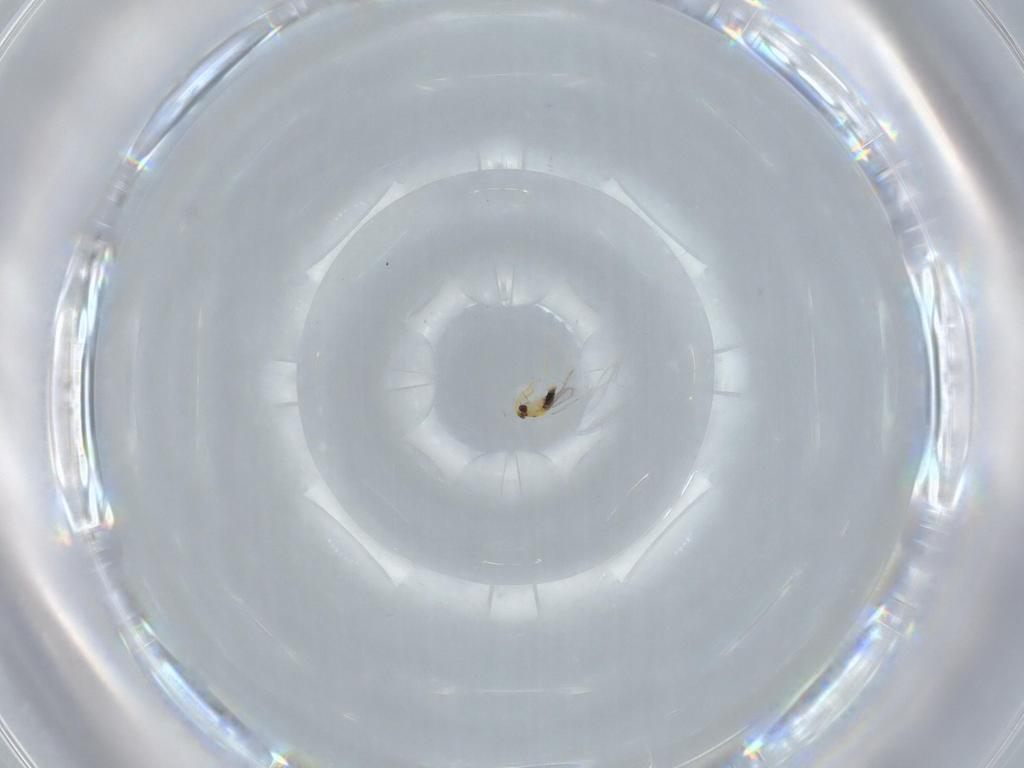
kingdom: Animalia
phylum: Arthropoda
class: Insecta
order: Hymenoptera
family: Aphelinidae
